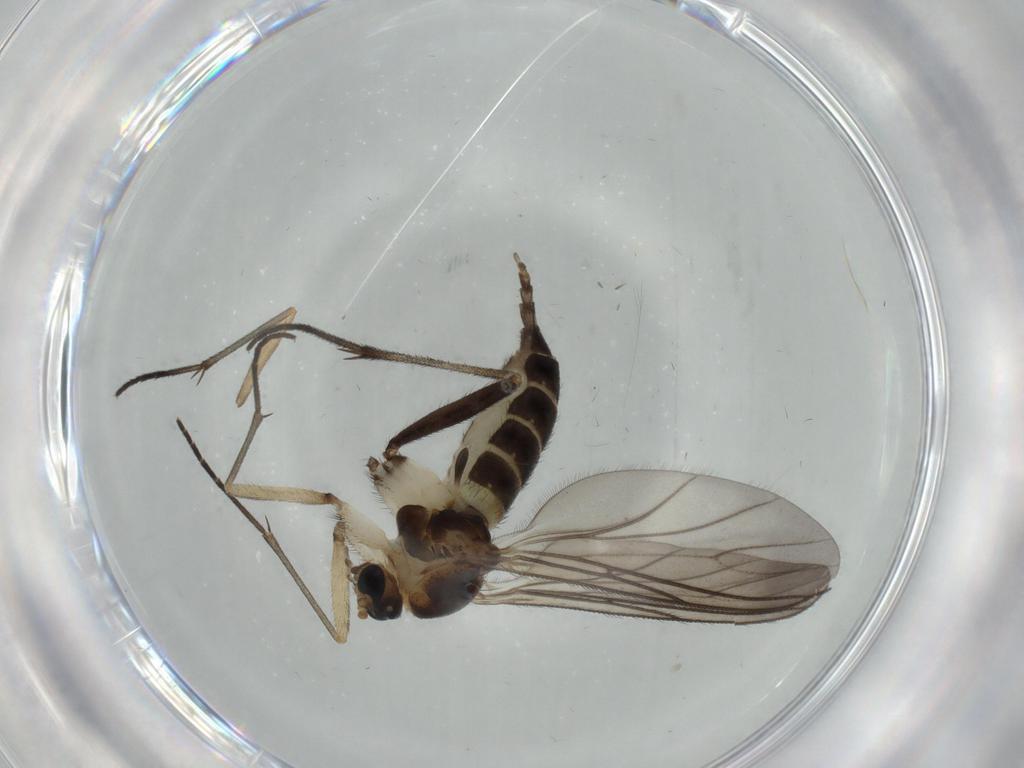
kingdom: Animalia
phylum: Arthropoda
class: Insecta
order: Diptera
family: Sciaridae
